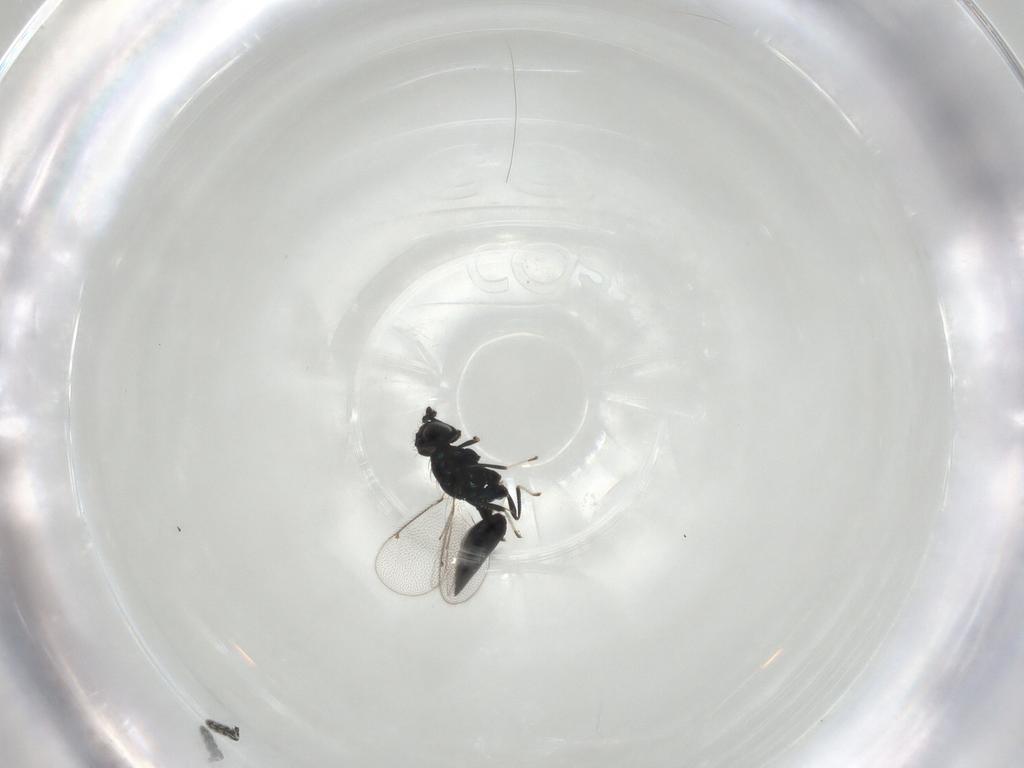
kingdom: Animalia
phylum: Arthropoda
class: Insecta
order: Hymenoptera
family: Eulophidae
